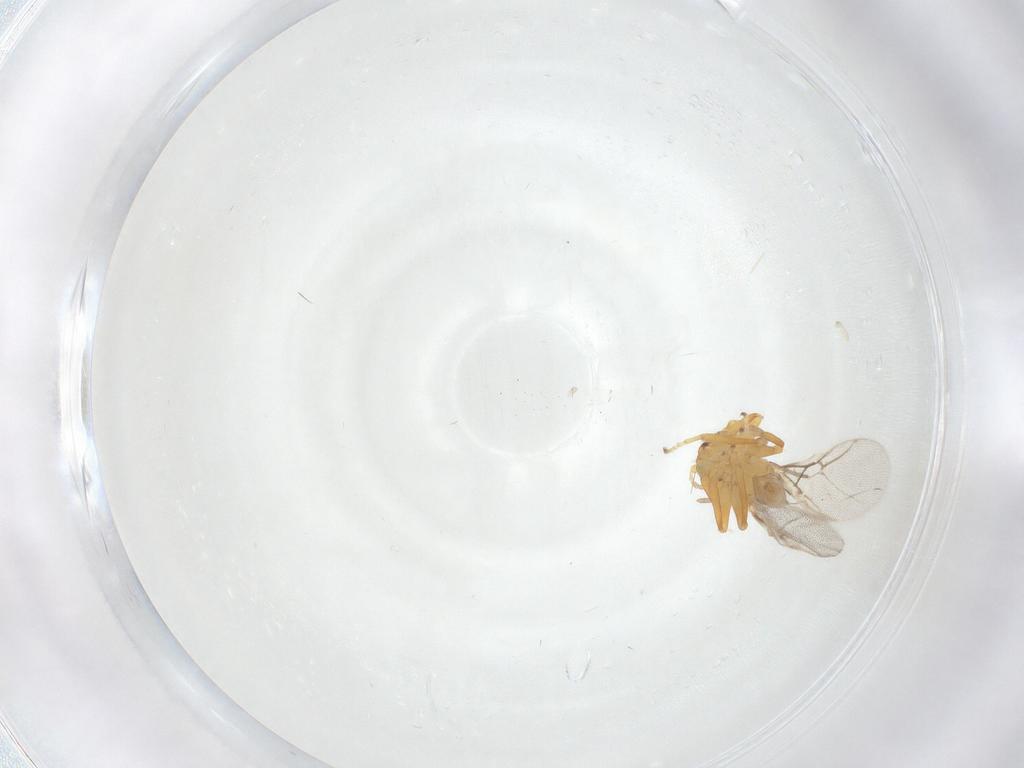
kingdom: Animalia
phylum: Arthropoda
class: Insecta
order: Hymenoptera
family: Cynipidae
